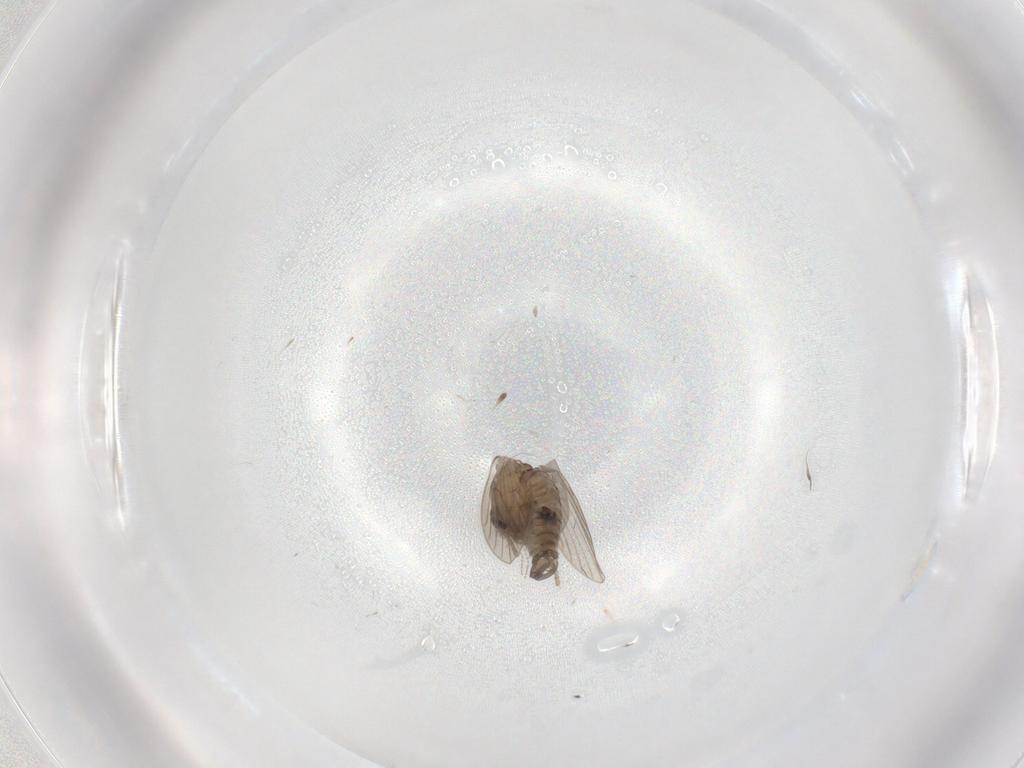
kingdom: Animalia
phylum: Arthropoda
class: Insecta
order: Diptera
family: Psychodidae
